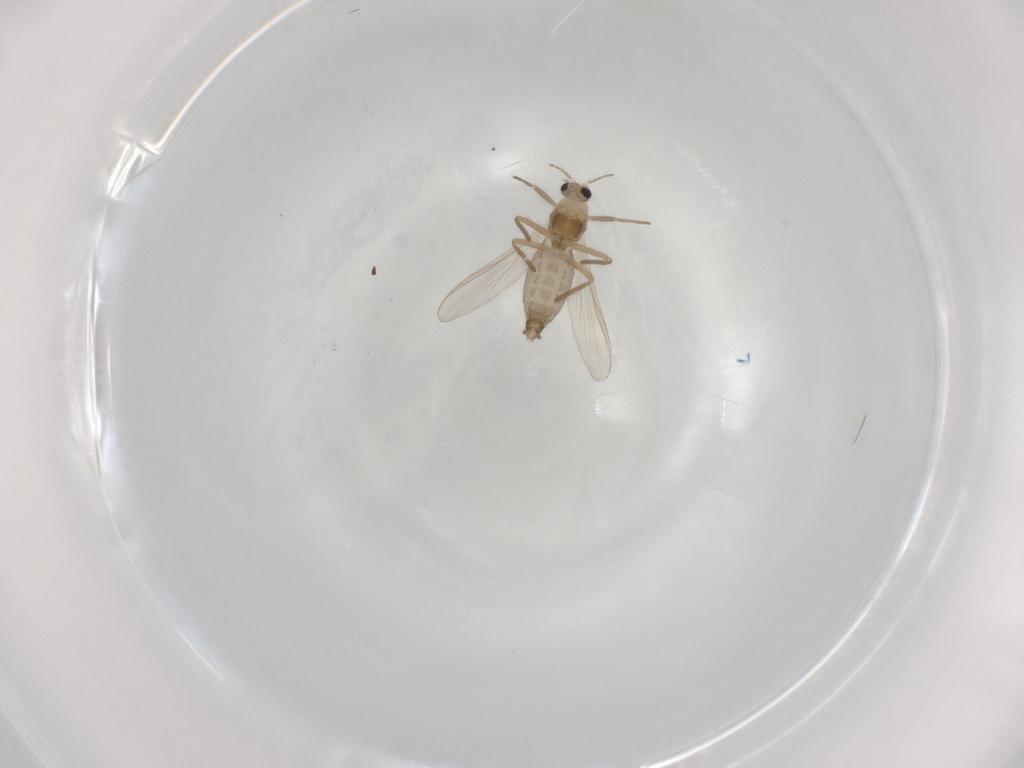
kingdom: Animalia
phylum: Arthropoda
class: Insecta
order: Diptera
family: Chironomidae
